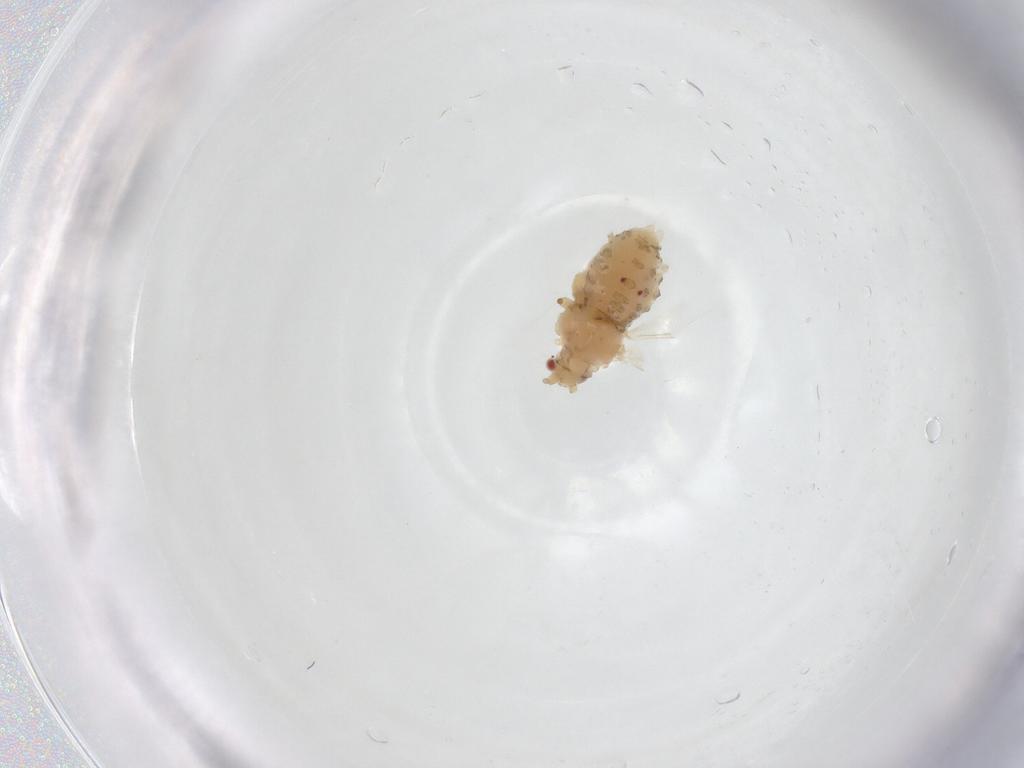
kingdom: Animalia
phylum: Arthropoda
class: Insecta
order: Hemiptera
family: Aphididae
